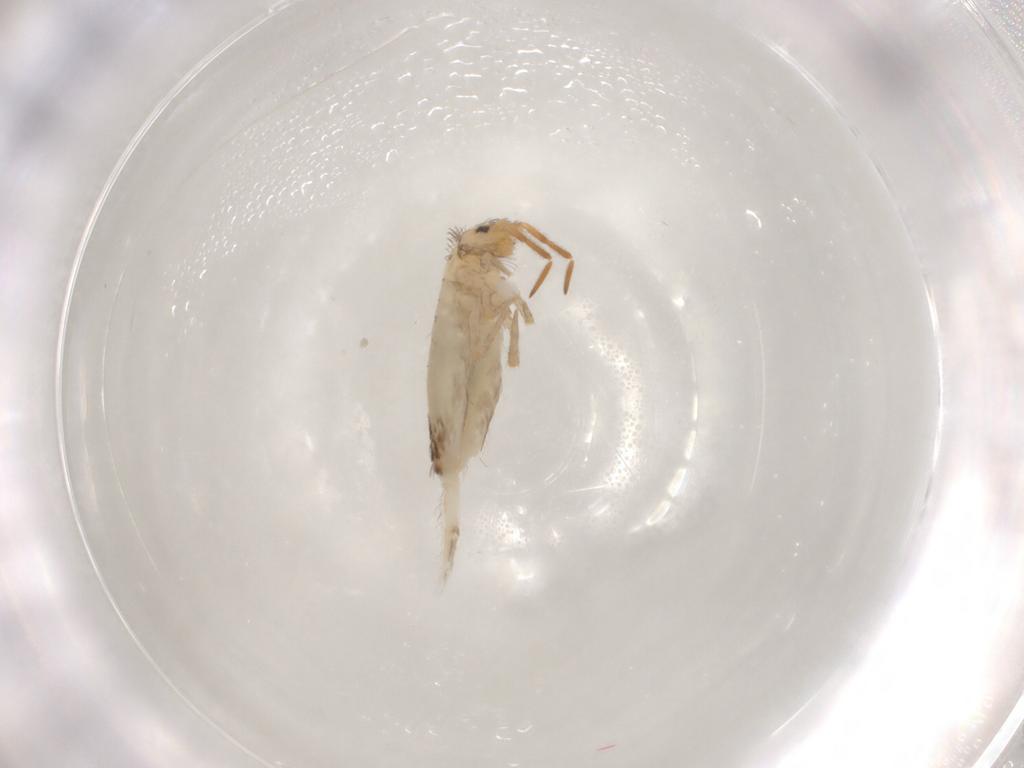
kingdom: Animalia
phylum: Arthropoda
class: Collembola
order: Entomobryomorpha
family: Entomobryidae
